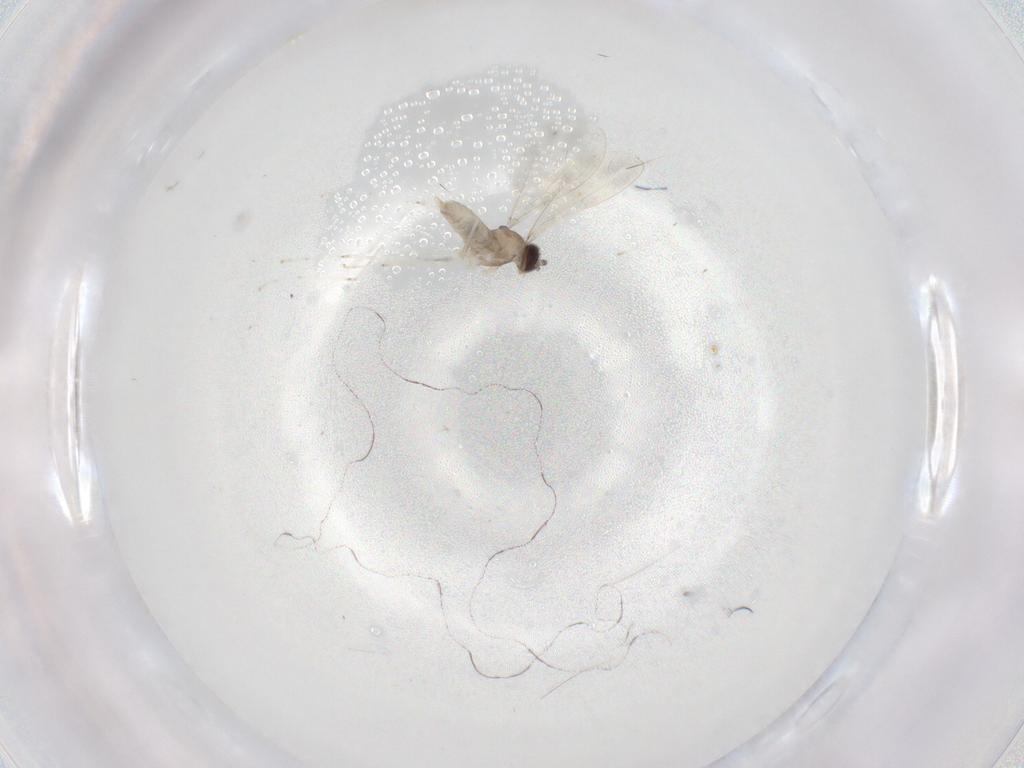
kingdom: Animalia
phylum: Arthropoda
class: Insecta
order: Diptera
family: Cecidomyiidae
